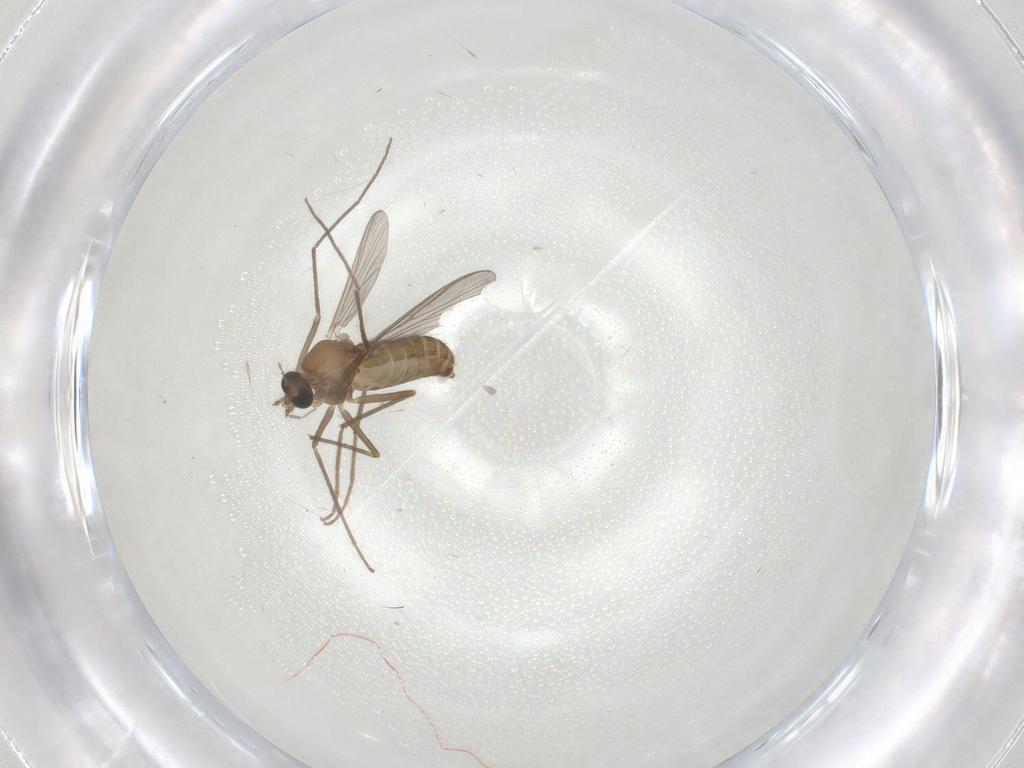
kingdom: Animalia
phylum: Arthropoda
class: Insecta
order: Diptera
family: Chironomidae
